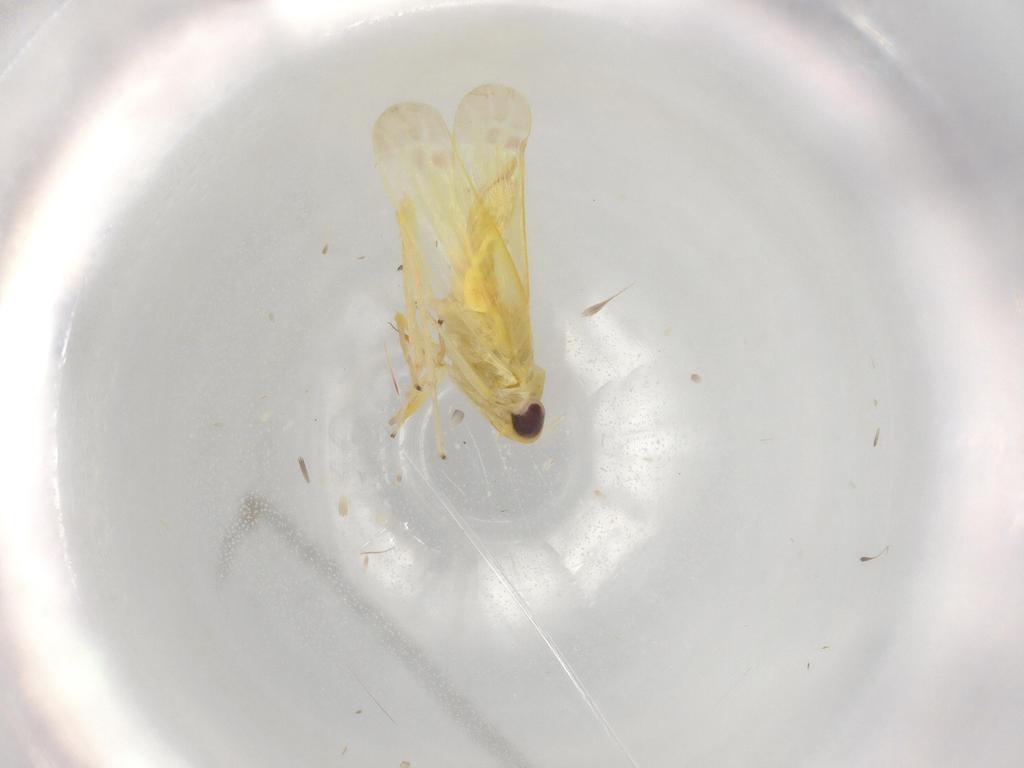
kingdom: Animalia
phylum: Arthropoda
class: Insecta
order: Hemiptera
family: Cicadellidae
